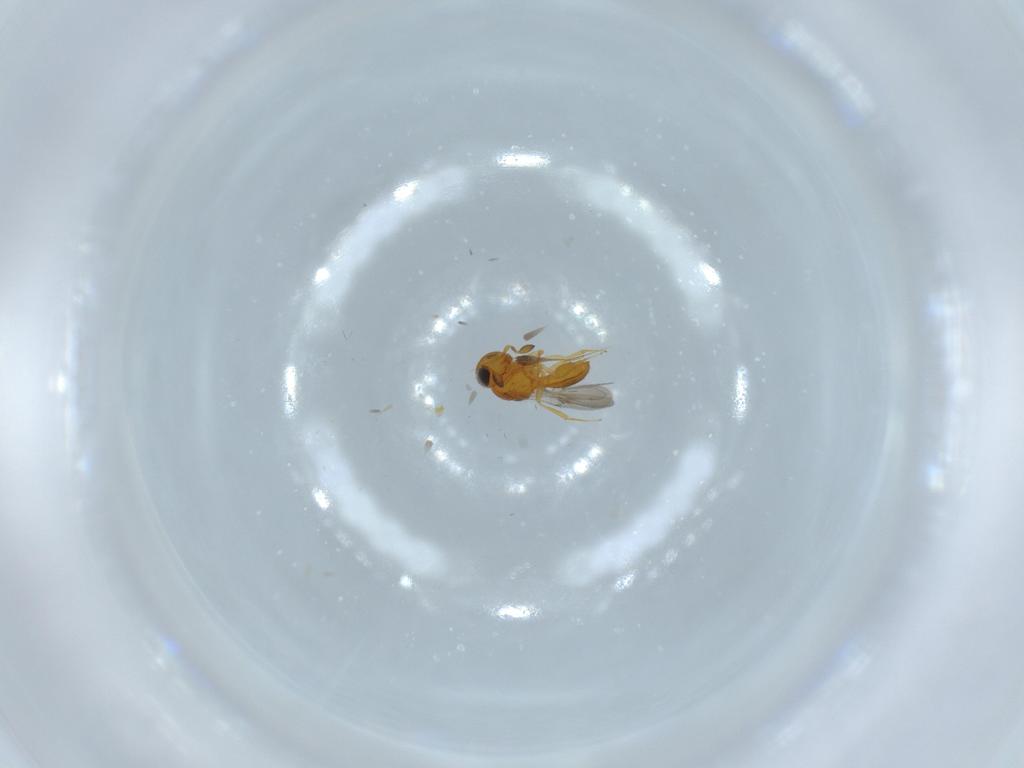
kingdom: Animalia
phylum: Arthropoda
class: Insecta
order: Hymenoptera
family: Scelionidae
